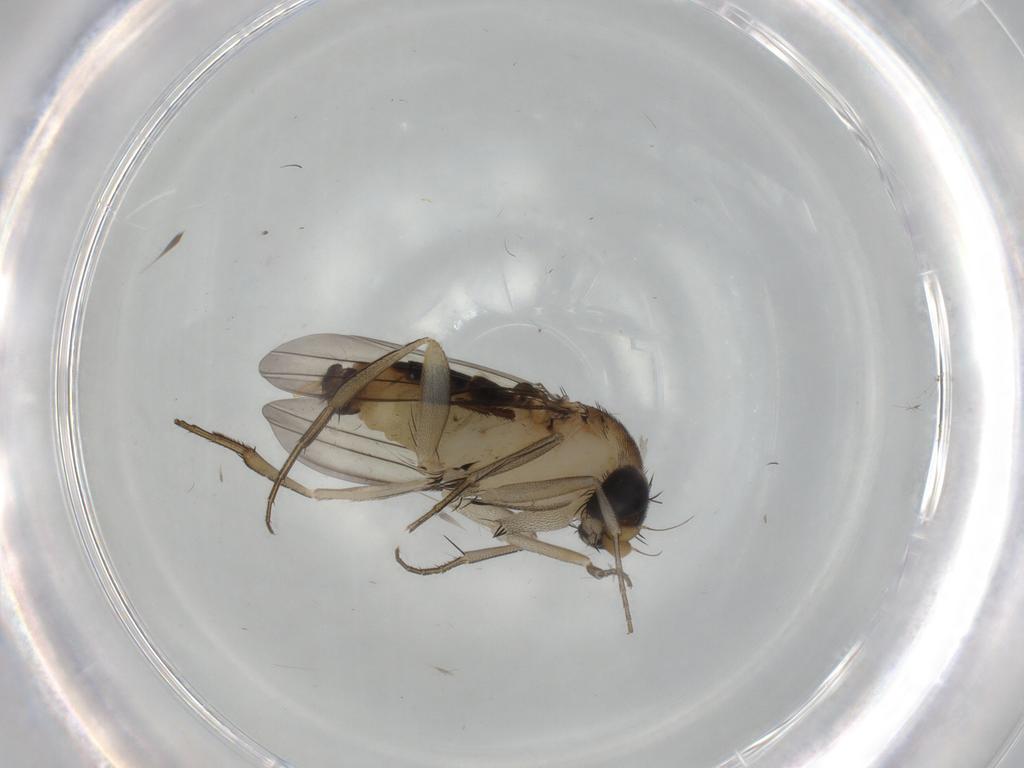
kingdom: Animalia
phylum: Arthropoda
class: Insecta
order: Diptera
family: Phoridae
